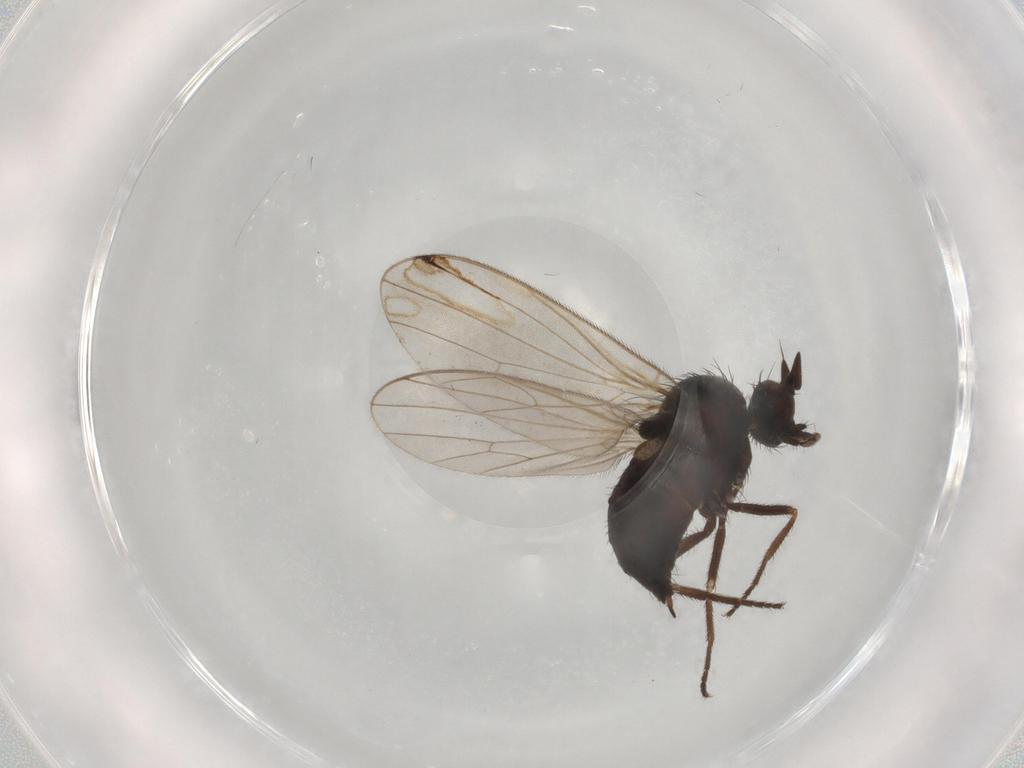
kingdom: Animalia
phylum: Arthropoda
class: Insecta
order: Diptera
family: Dolichopodidae
